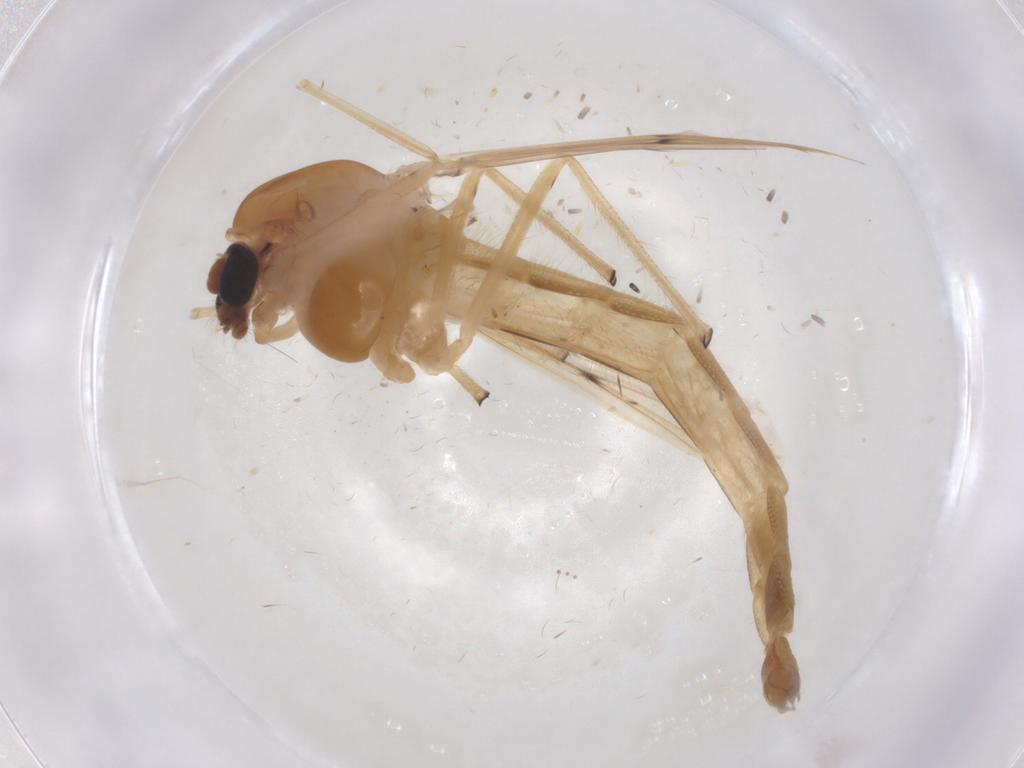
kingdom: Animalia
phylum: Arthropoda
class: Insecta
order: Diptera
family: Chironomidae
